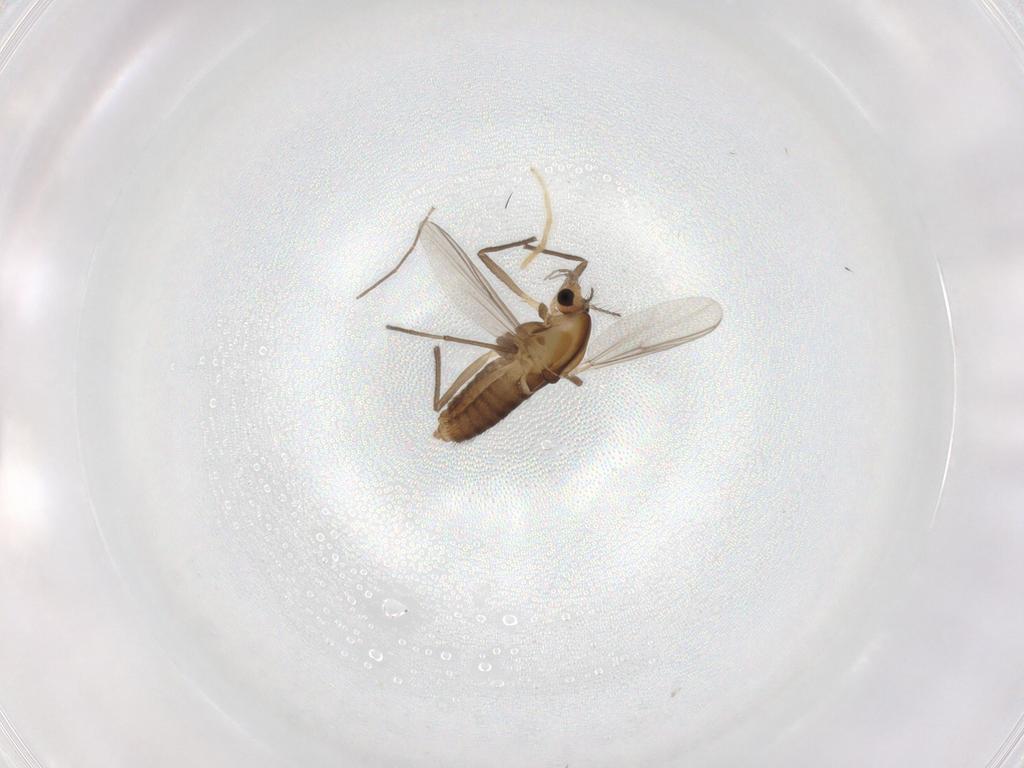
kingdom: Animalia
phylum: Arthropoda
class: Insecta
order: Diptera
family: Chironomidae
